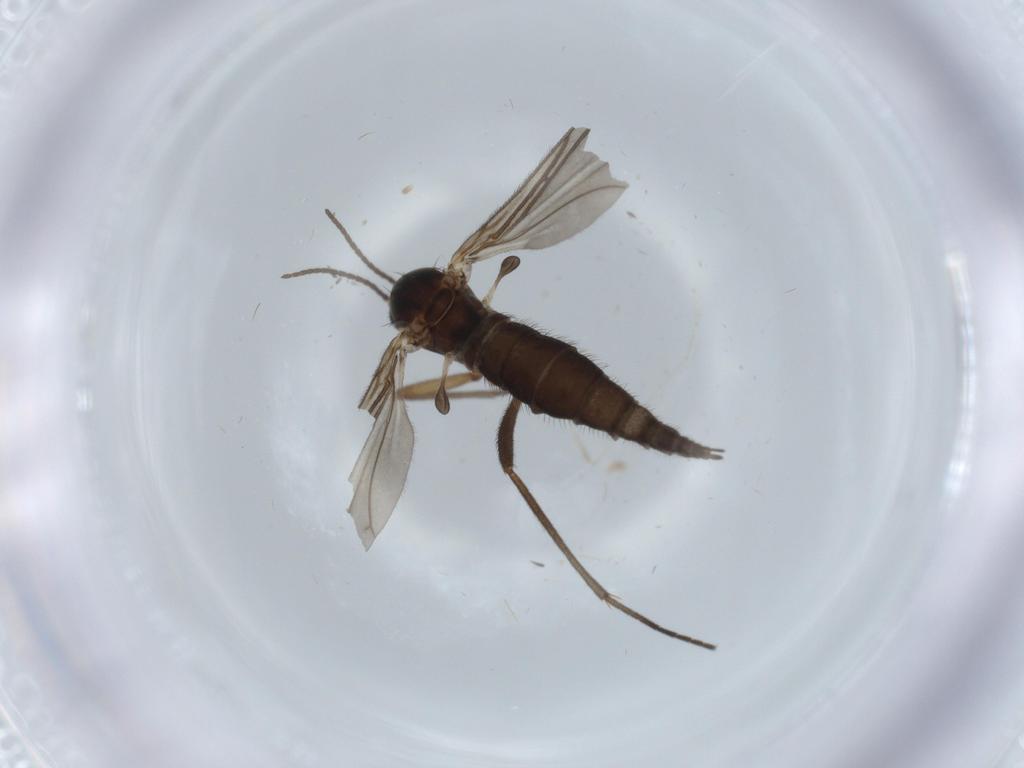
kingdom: Animalia
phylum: Arthropoda
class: Insecta
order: Diptera
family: Sciaridae
